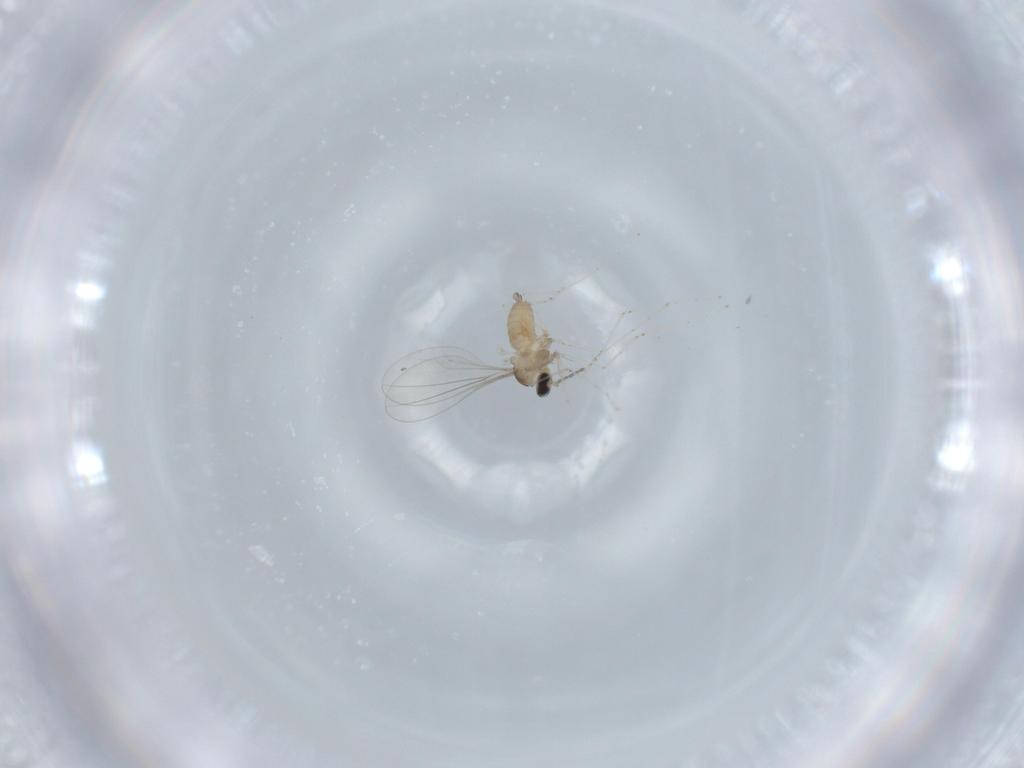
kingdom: Animalia
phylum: Arthropoda
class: Insecta
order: Diptera
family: Cecidomyiidae
